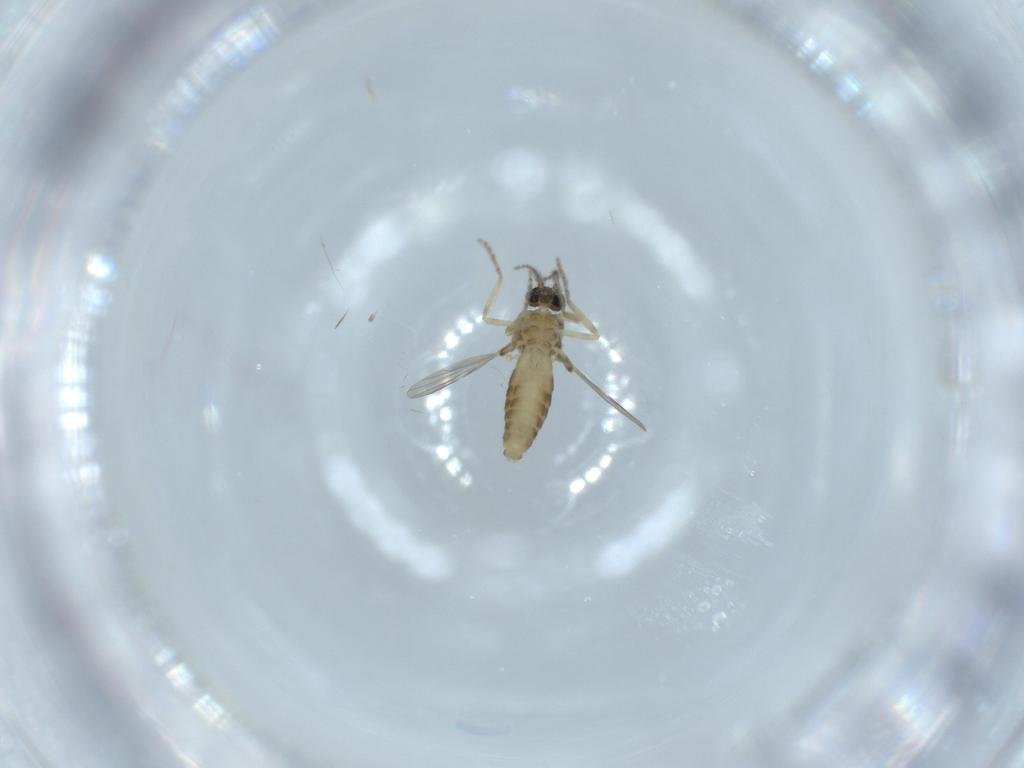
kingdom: Animalia
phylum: Arthropoda
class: Insecta
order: Diptera
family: Ceratopogonidae
